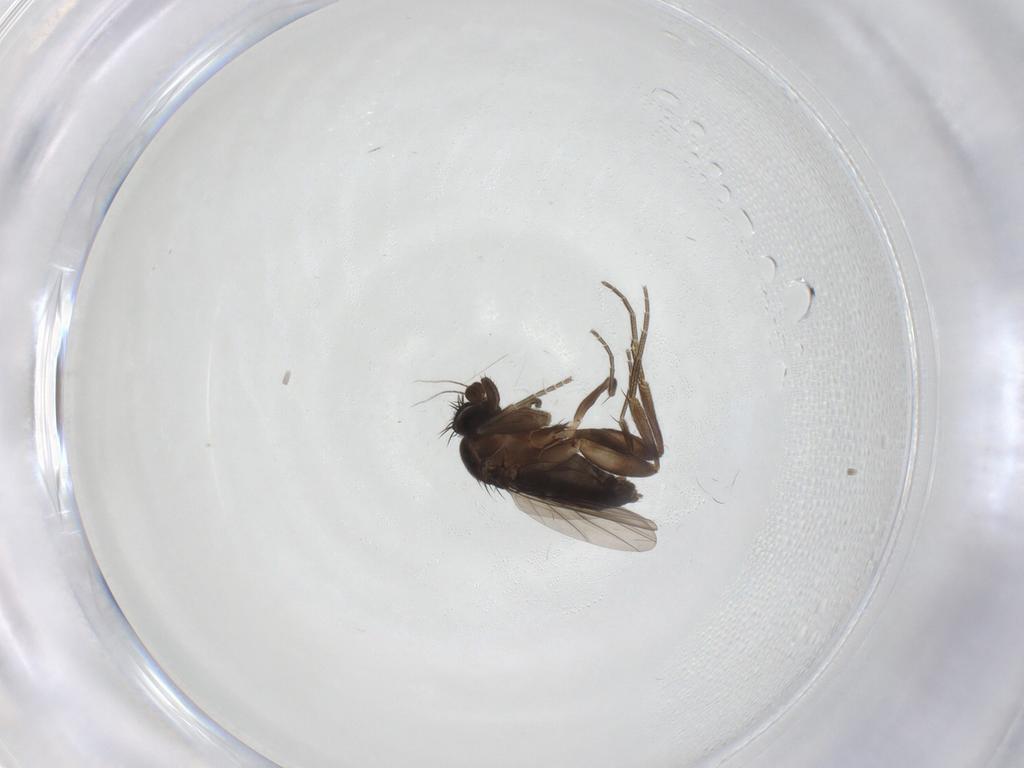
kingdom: Animalia
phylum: Arthropoda
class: Insecta
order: Diptera
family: Phoridae
